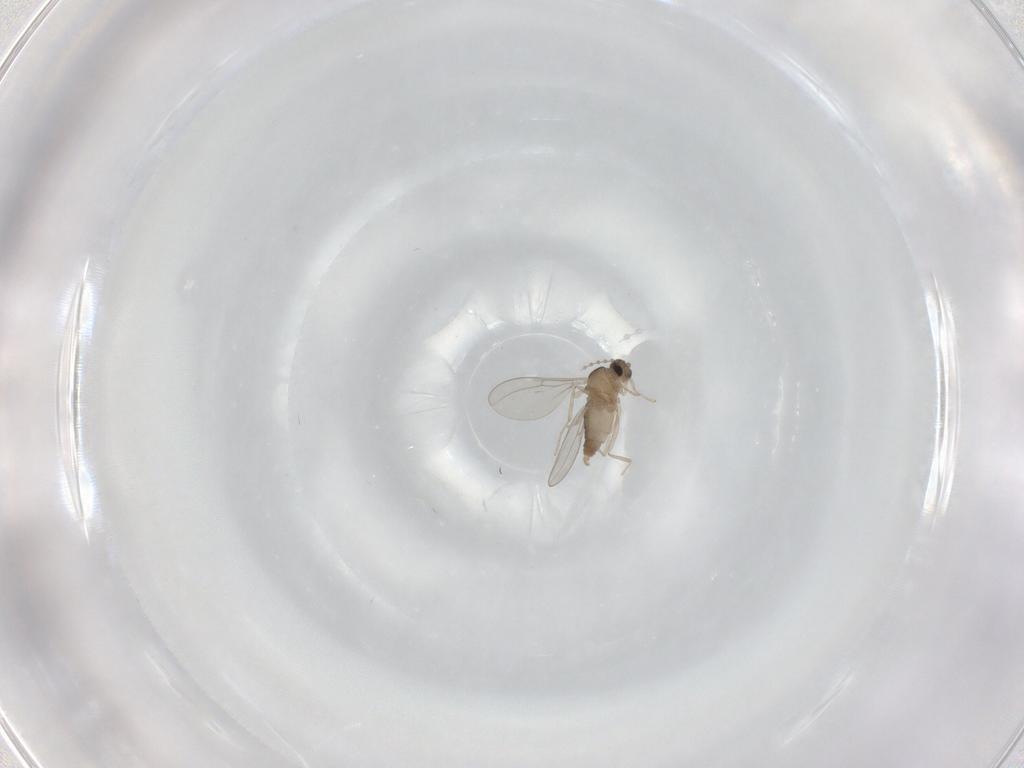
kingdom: Animalia
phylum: Arthropoda
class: Insecta
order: Diptera
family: Cecidomyiidae
